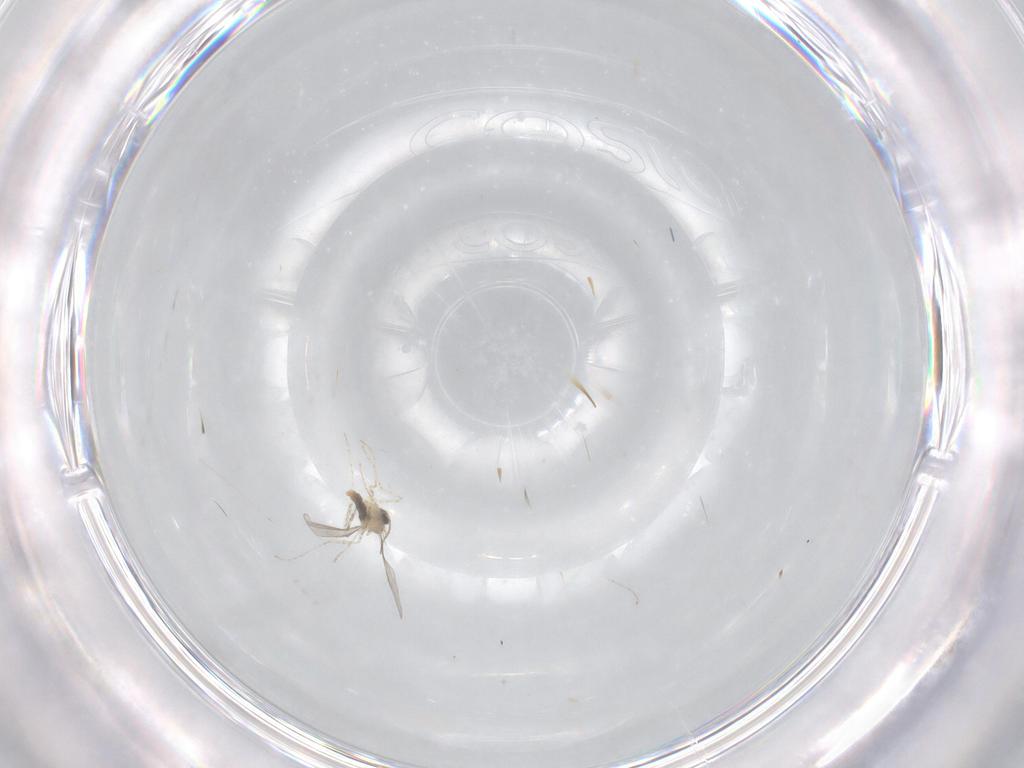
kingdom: Animalia
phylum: Arthropoda
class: Insecta
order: Diptera
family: Cecidomyiidae
